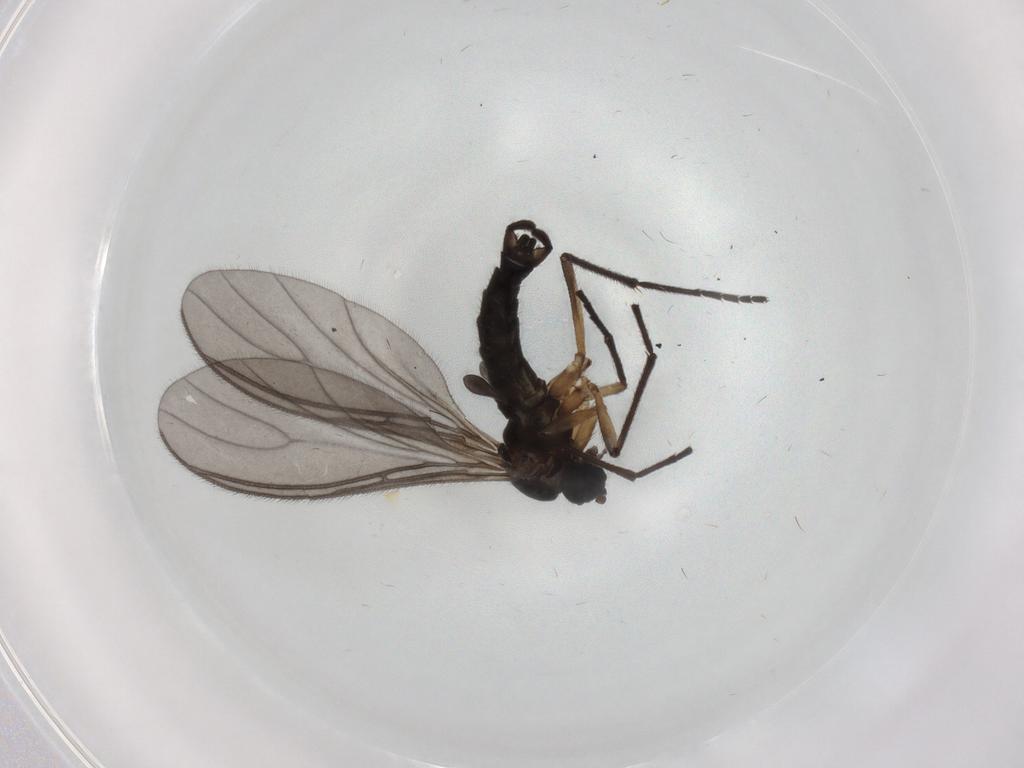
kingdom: Animalia
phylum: Arthropoda
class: Insecta
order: Diptera
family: Sciaridae
